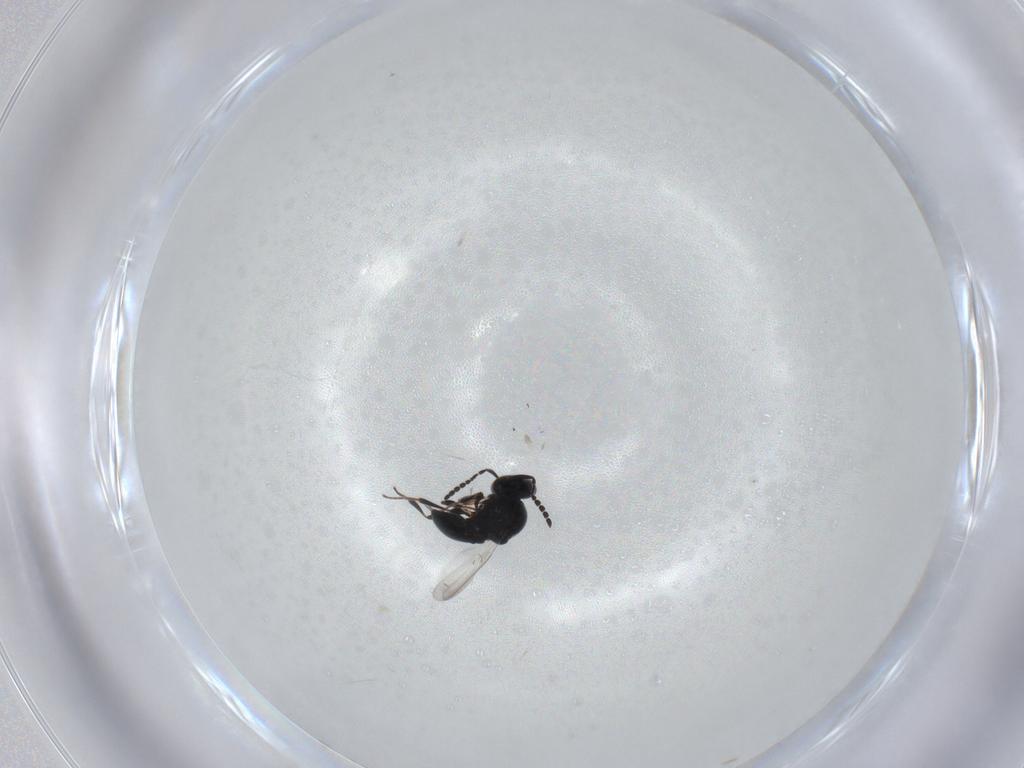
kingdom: Animalia
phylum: Arthropoda
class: Insecta
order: Hymenoptera
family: Platygastridae
